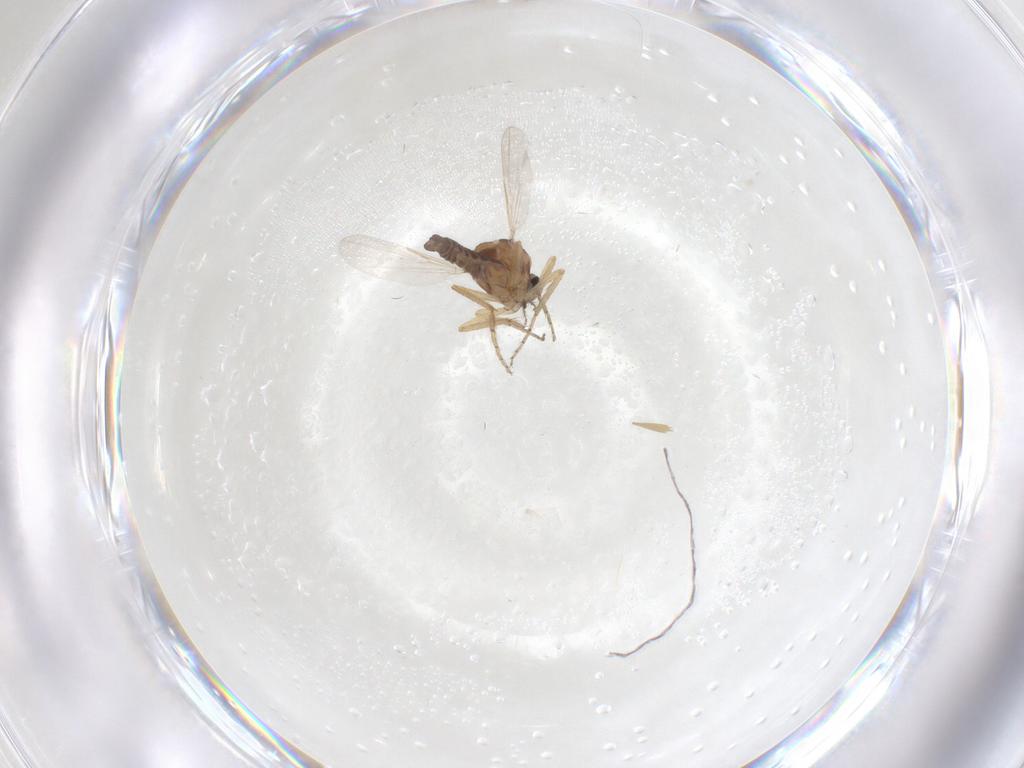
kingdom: Animalia
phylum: Arthropoda
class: Insecta
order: Diptera
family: Ceratopogonidae
